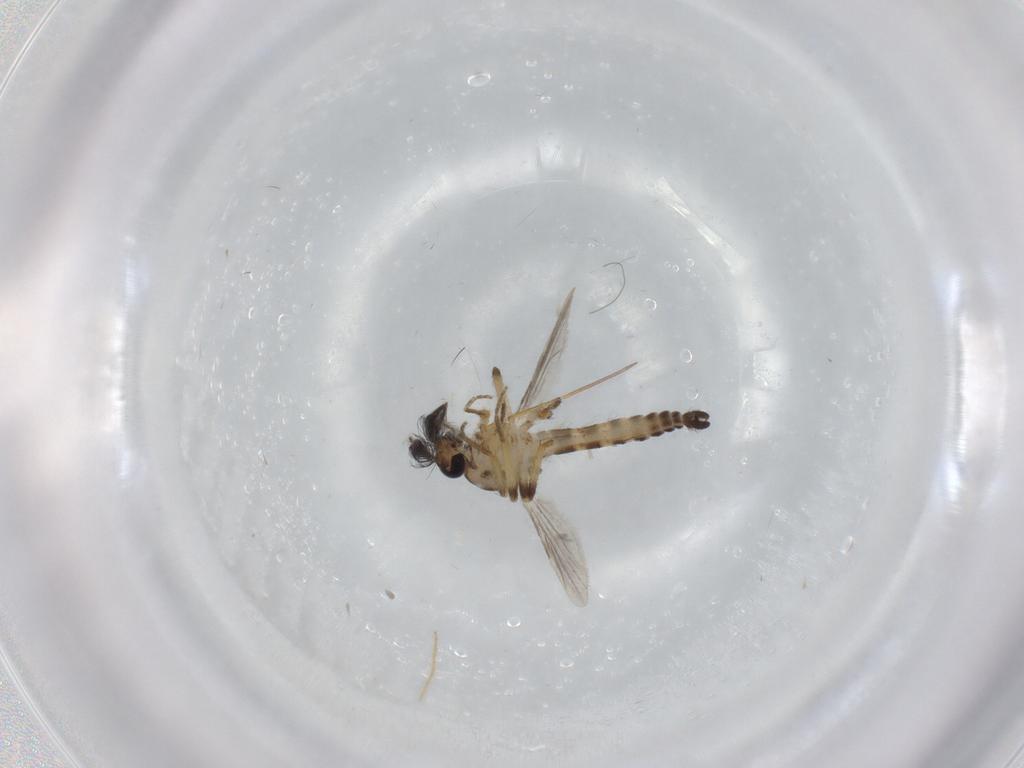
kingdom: Animalia
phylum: Arthropoda
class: Insecta
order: Diptera
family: Ceratopogonidae
